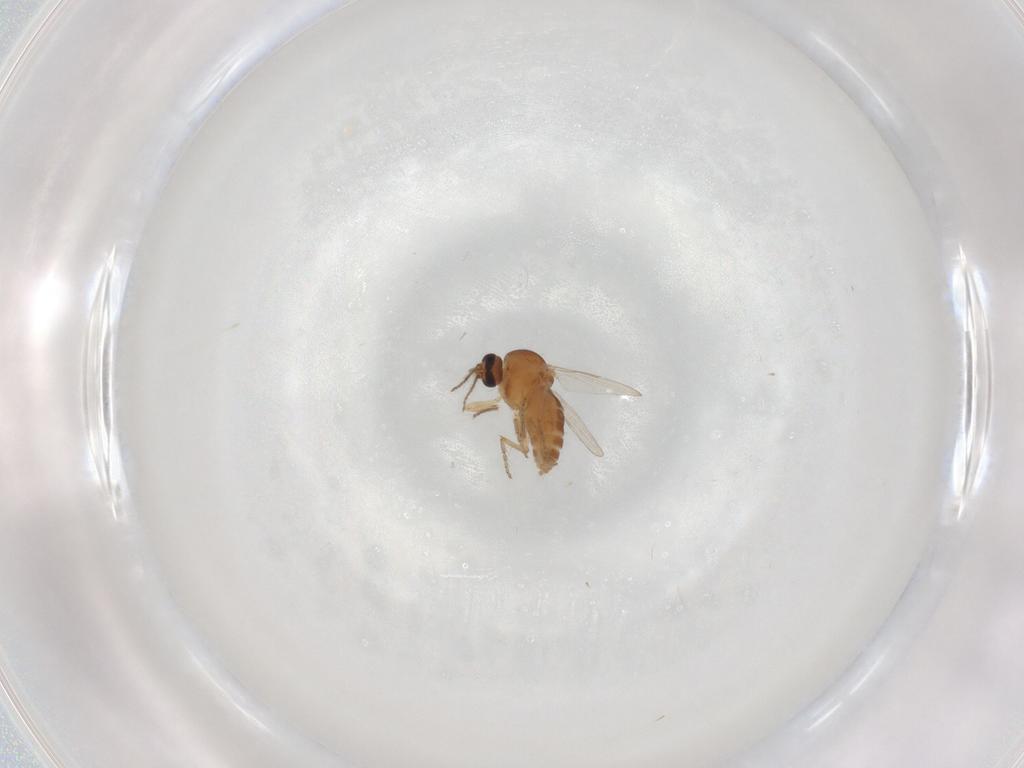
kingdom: Animalia
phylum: Arthropoda
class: Insecta
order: Diptera
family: Ceratopogonidae
